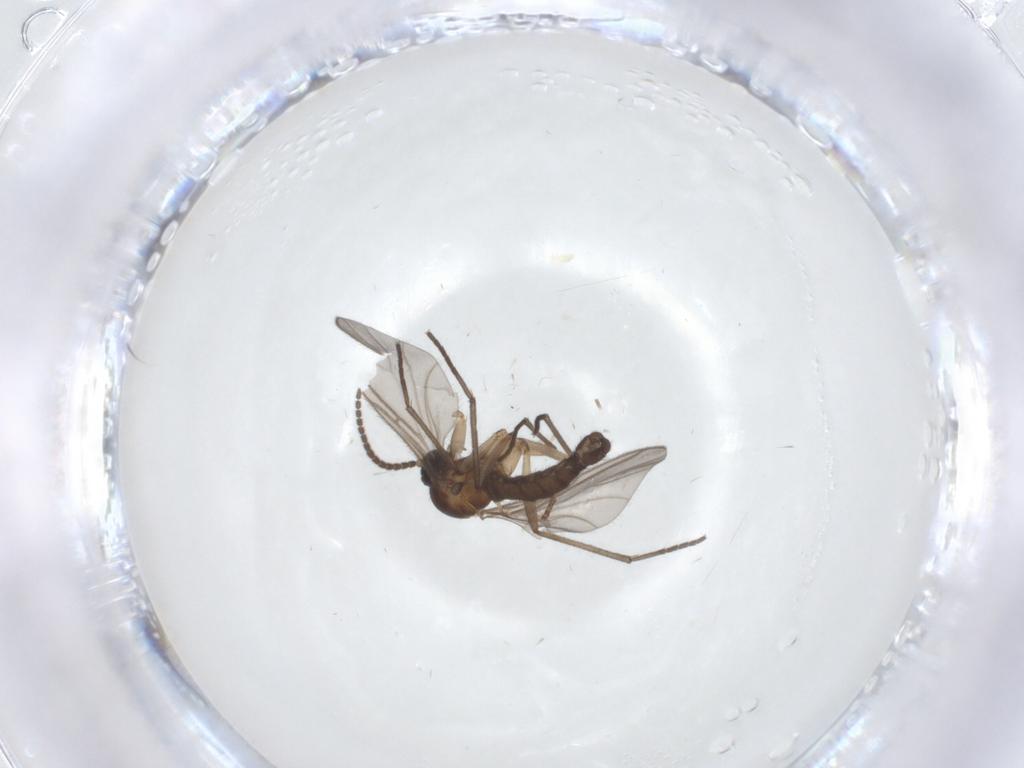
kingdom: Animalia
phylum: Arthropoda
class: Insecta
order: Diptera
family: Sciaridae
